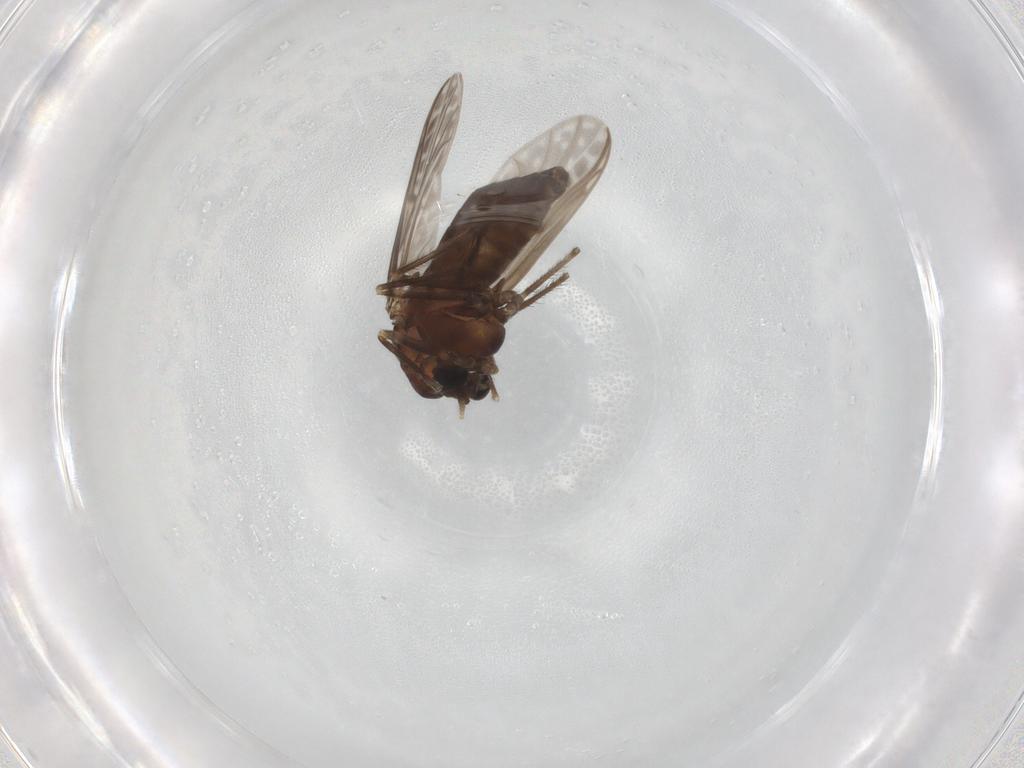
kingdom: Animalia
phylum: Arthropoda
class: Insecta
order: Diptera
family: Chironomidae
